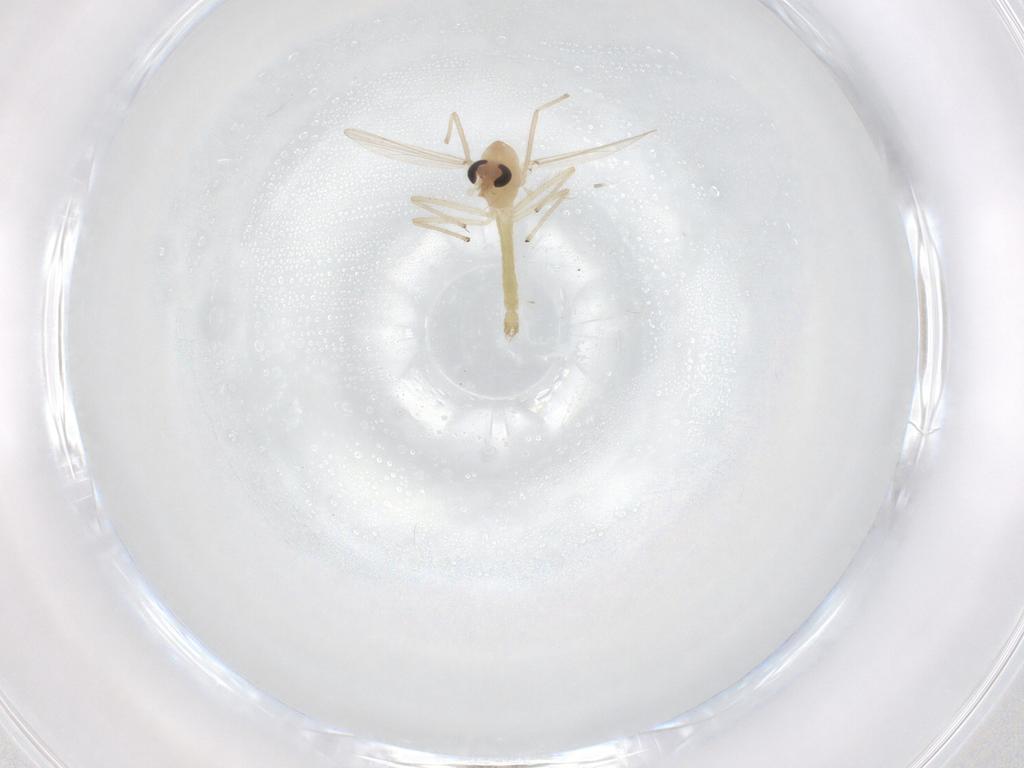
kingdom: Animalia
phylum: Arthropoda
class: Insecta
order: Diptera
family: Chironomidae
